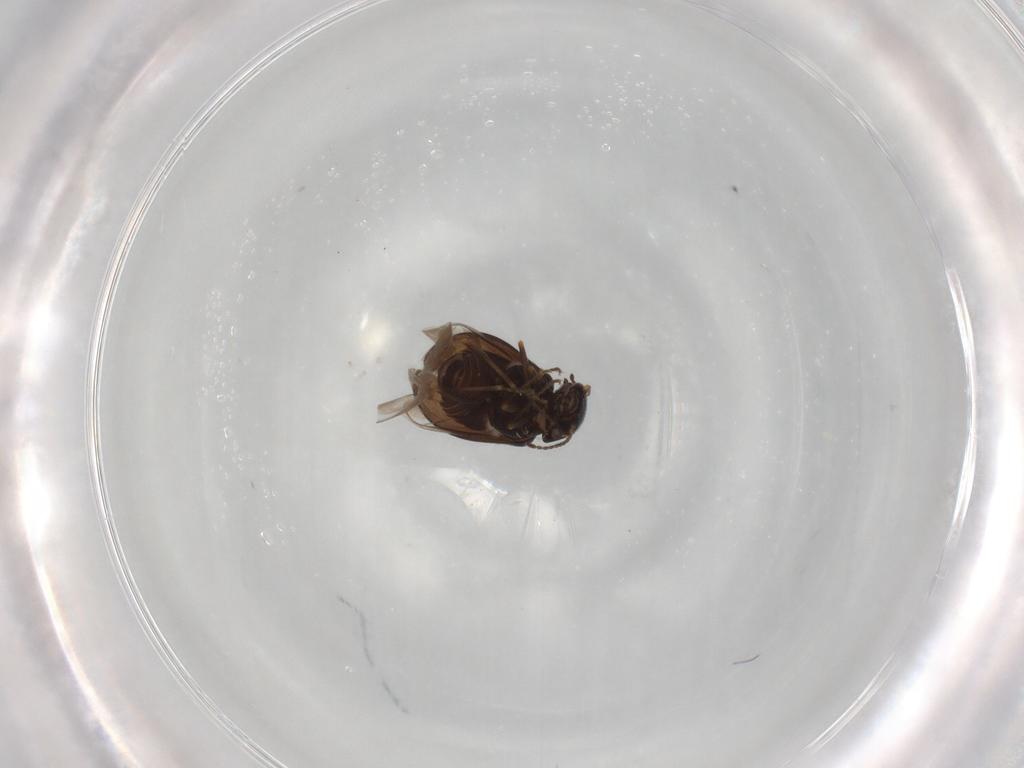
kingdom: Animalia
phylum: Arthropoda
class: Insecta
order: Coleoptera
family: Melyridae
